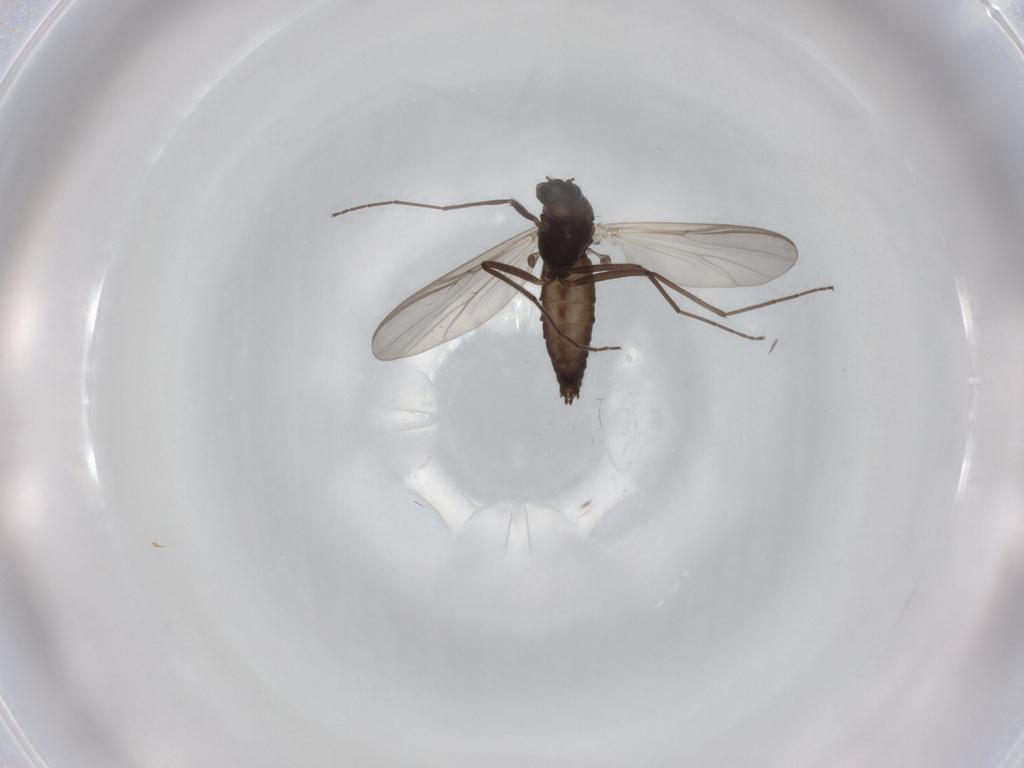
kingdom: Animalia
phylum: Arthropoda
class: Insecta
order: Diptera
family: Chironomidae
